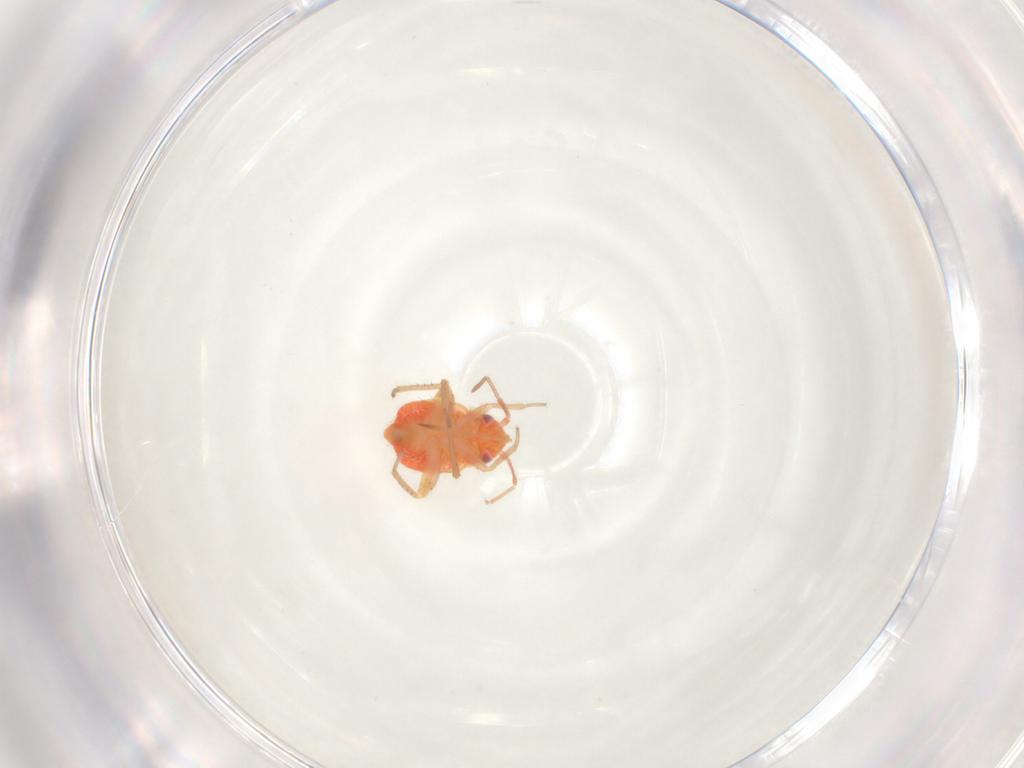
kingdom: Animalia
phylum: Arthropoda
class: Insecta
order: Hemiptera
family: Miridae
